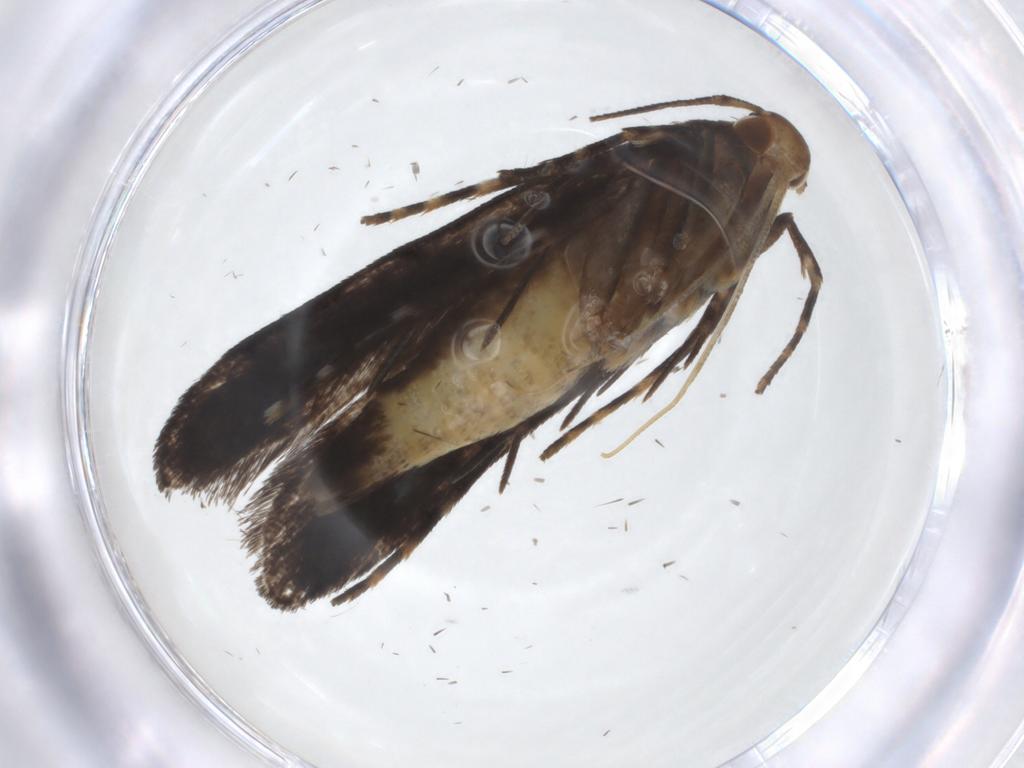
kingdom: Animalia
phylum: Arthropoda
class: Insecta
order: Lepidoptera
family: Gelechiidae
